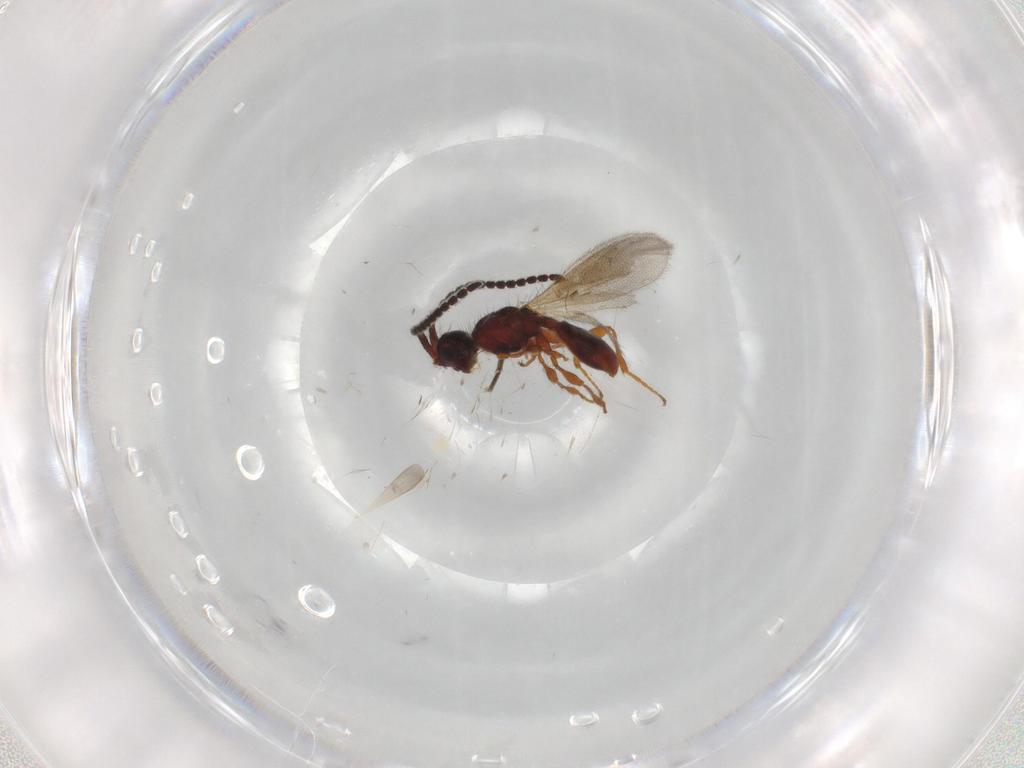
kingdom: Animalia
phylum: Arthropoda
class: Insecta
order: Hymenoptera
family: Diapriidae
